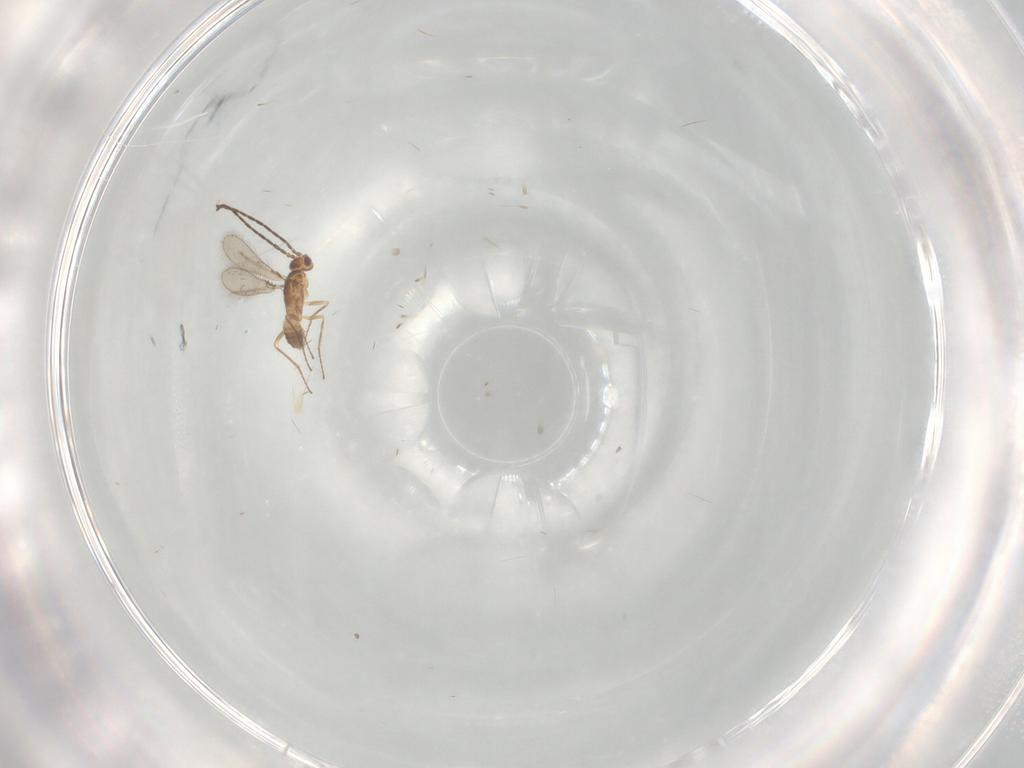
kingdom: Animalia
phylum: Arthropoda
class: Insecta
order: Hymenoptera
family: Mymaridae
